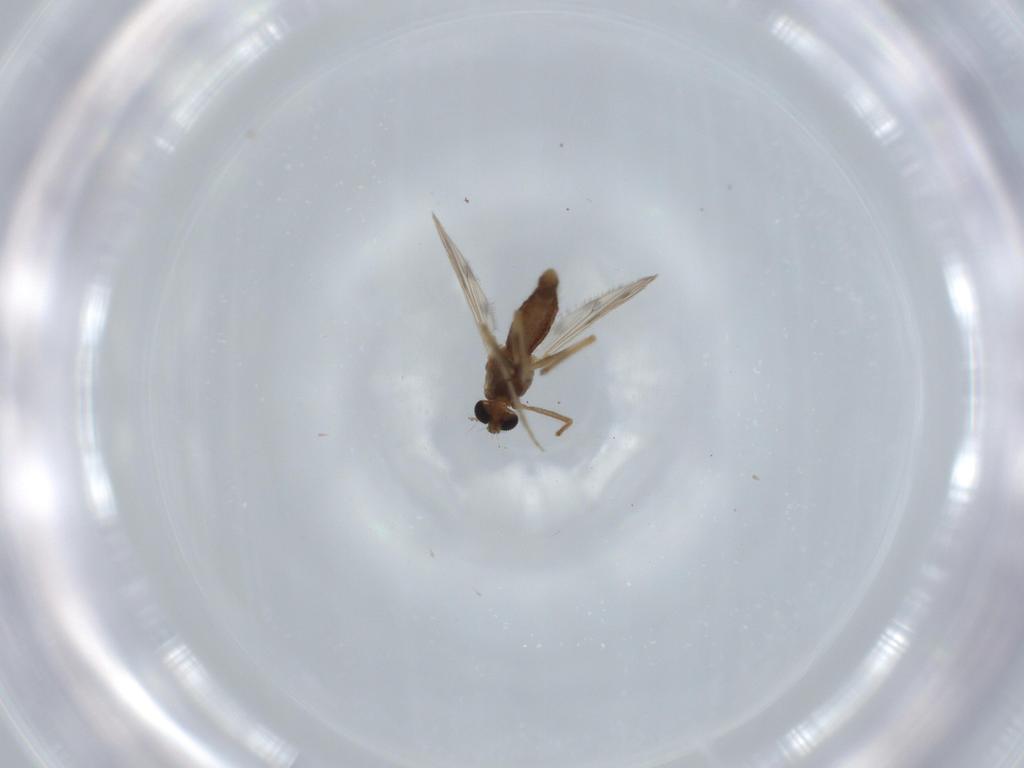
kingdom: Animalia
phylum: Arthropoda
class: Insecta
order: Diptera
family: Chironomidae
